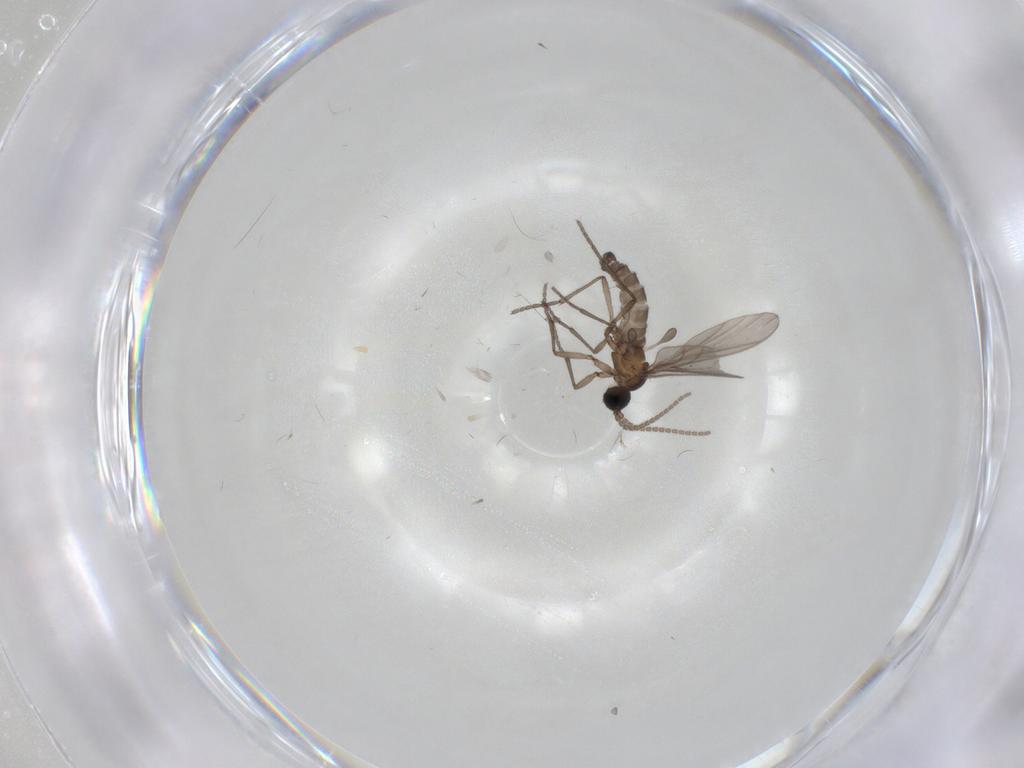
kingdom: Animalia
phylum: Arthropoda
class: Insecta
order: Diptera
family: Sciaridae
